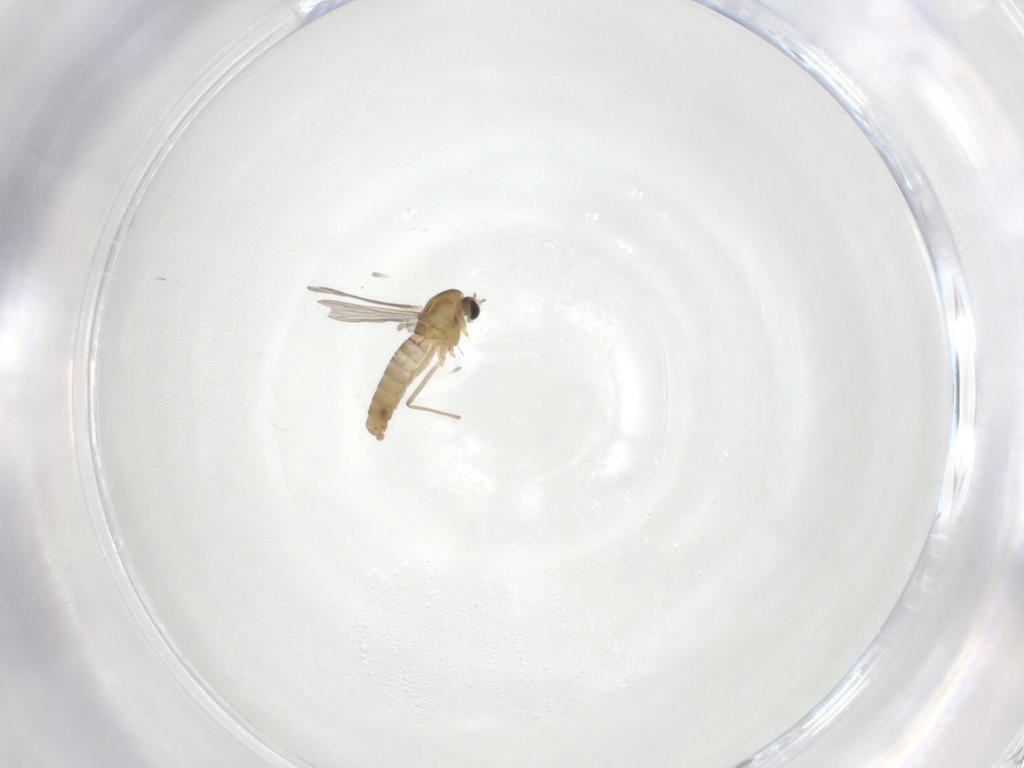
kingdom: Animalia
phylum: Arthropoda
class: Insecta
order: Diptera
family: Chironomidae
